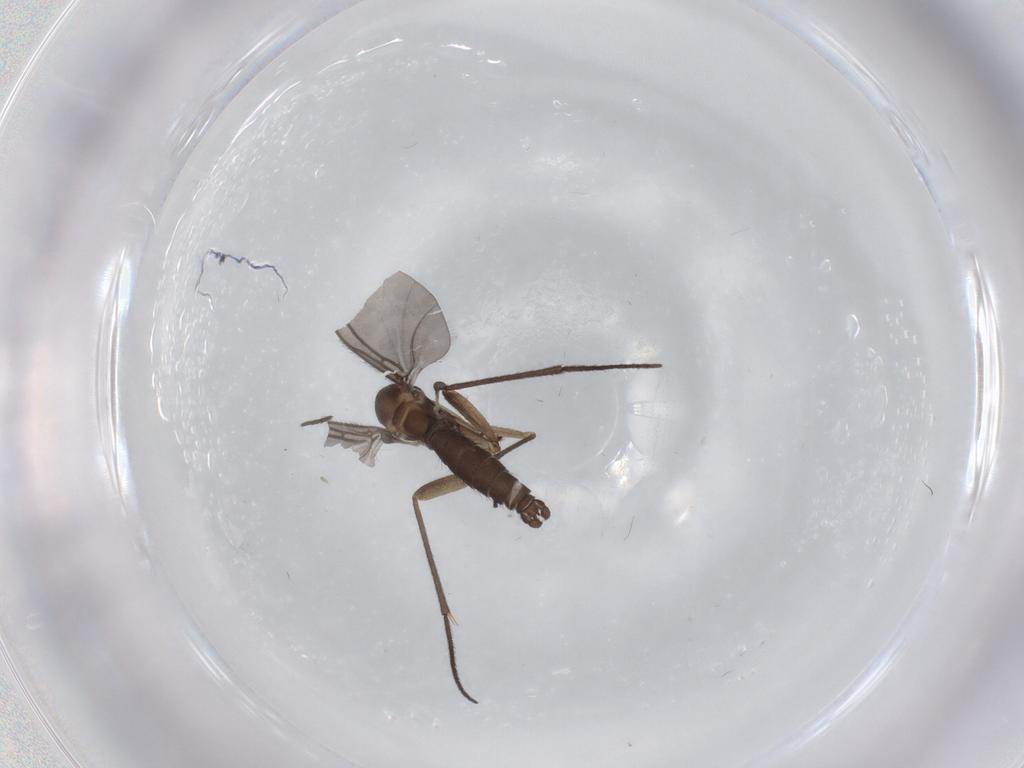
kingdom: Animalia
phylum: Arthropoda
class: Insecta
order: Diptera
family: Sciaridae
